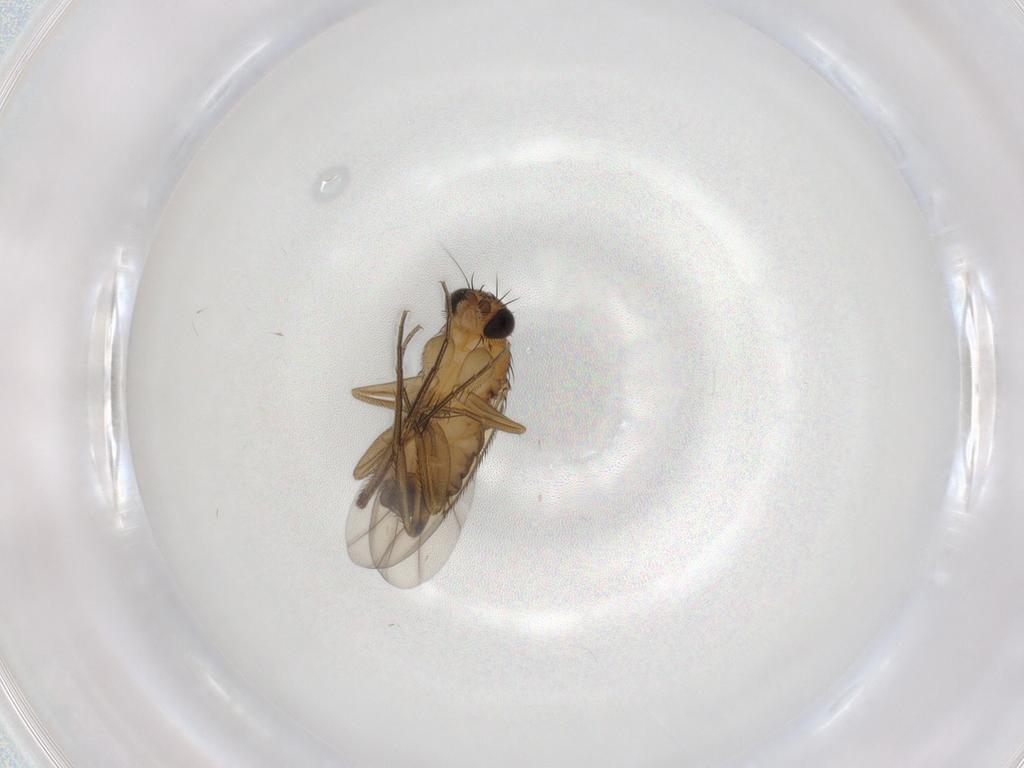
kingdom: Animalia
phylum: Arthropoda
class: Insecta
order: Diptera
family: Phoridae
